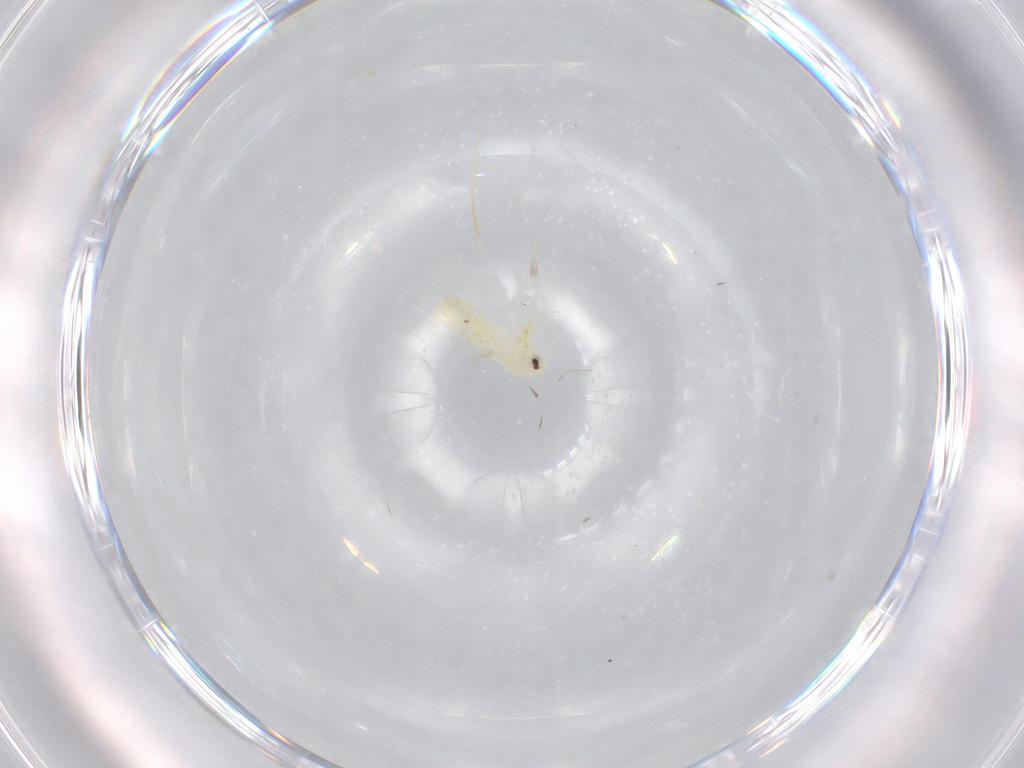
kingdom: Animalia
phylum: Arthropoda
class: Insecta
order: Hemiptera
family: Aleyrodidae
